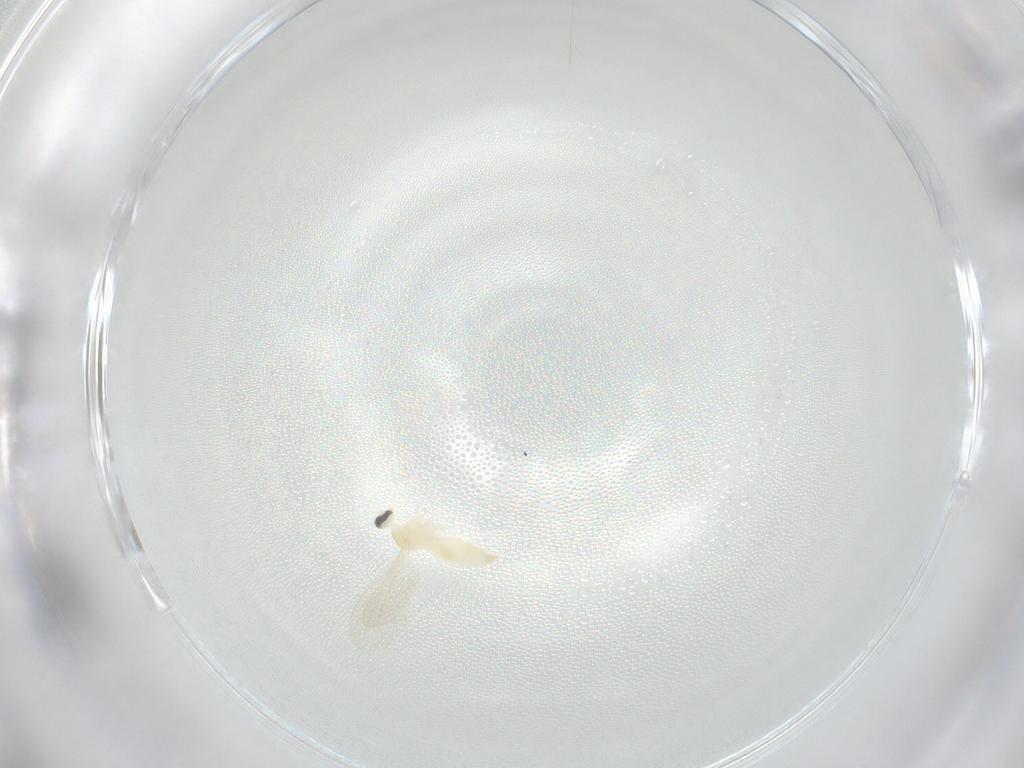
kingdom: Animalia
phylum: Arthropoda
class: Insecta
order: Diptera
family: Cecidomyiidae
